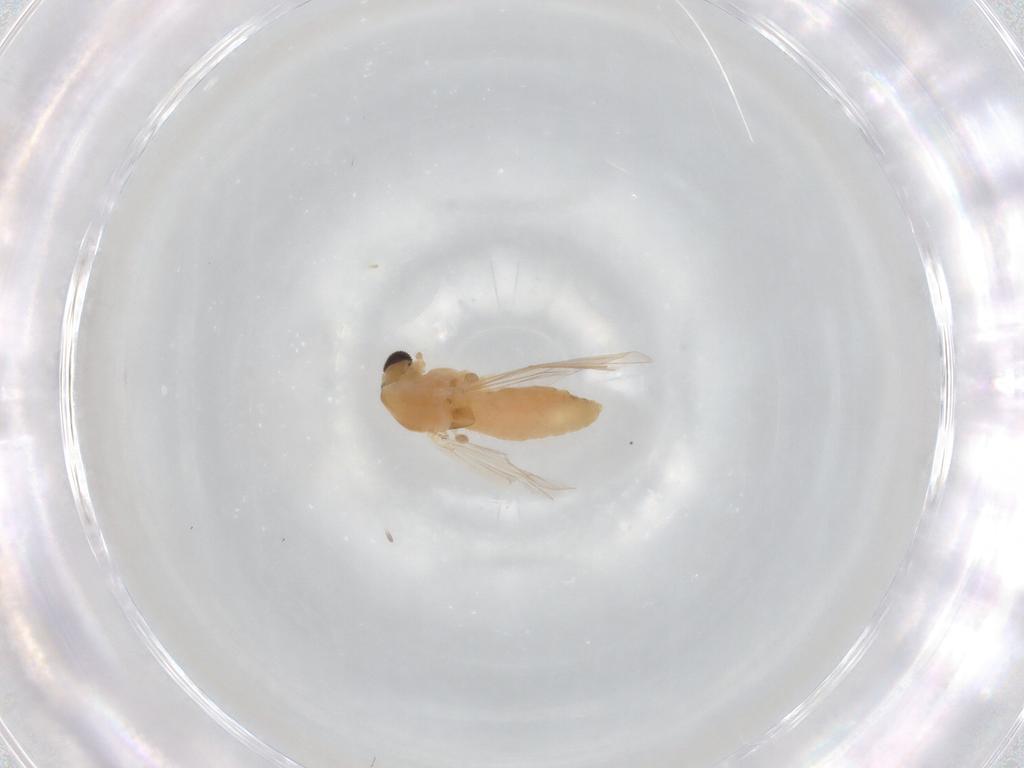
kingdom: Animalia
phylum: Arthropoda
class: Insecta
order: Diptera
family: Chironomidae
